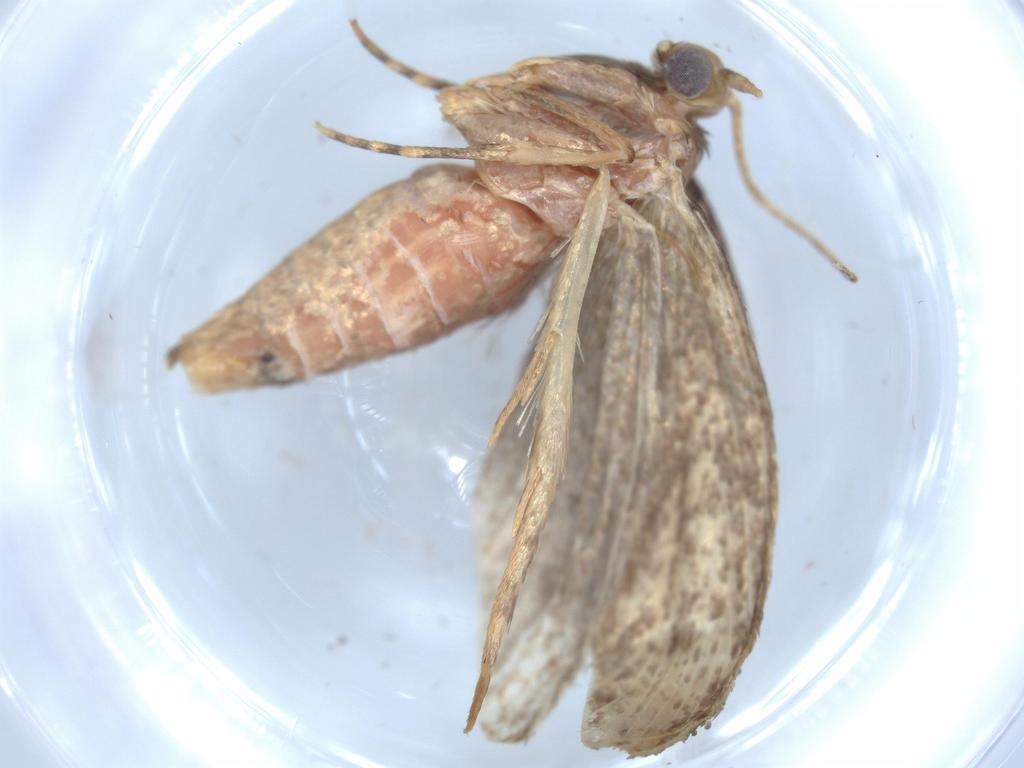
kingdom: Animalia
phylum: Arthropoda
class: Insecta
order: Lepidoptera
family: Tineidae
